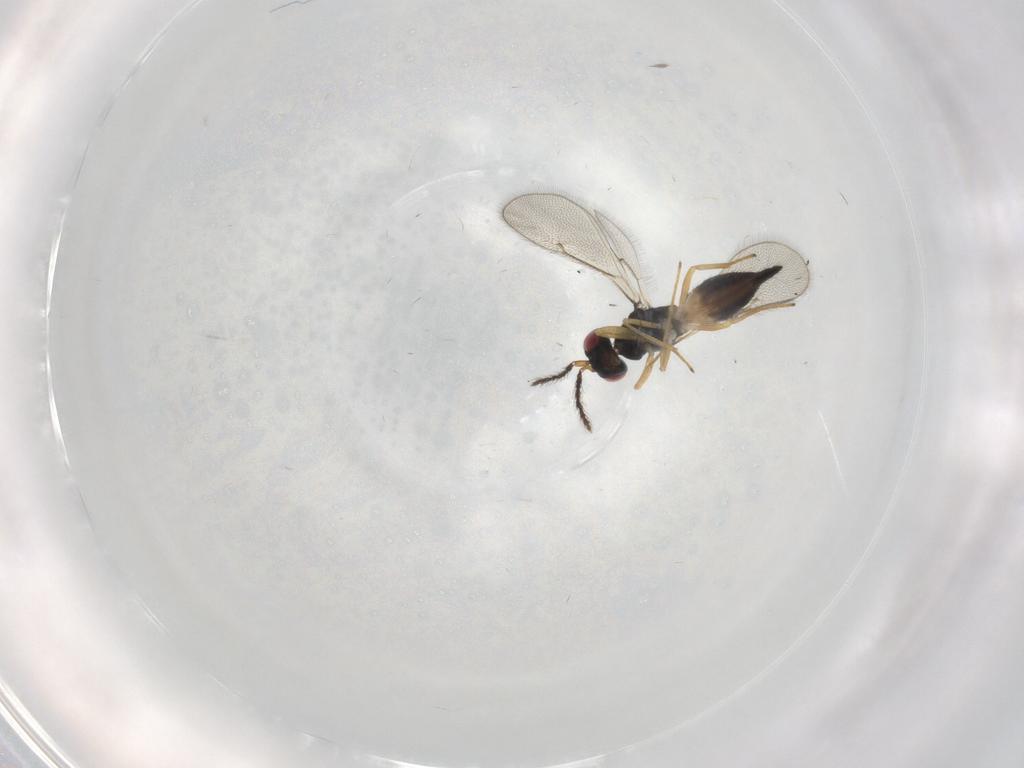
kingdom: Animalia
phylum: Arthropoda
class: Insecta
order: Hymenoptera
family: Eulophidae
